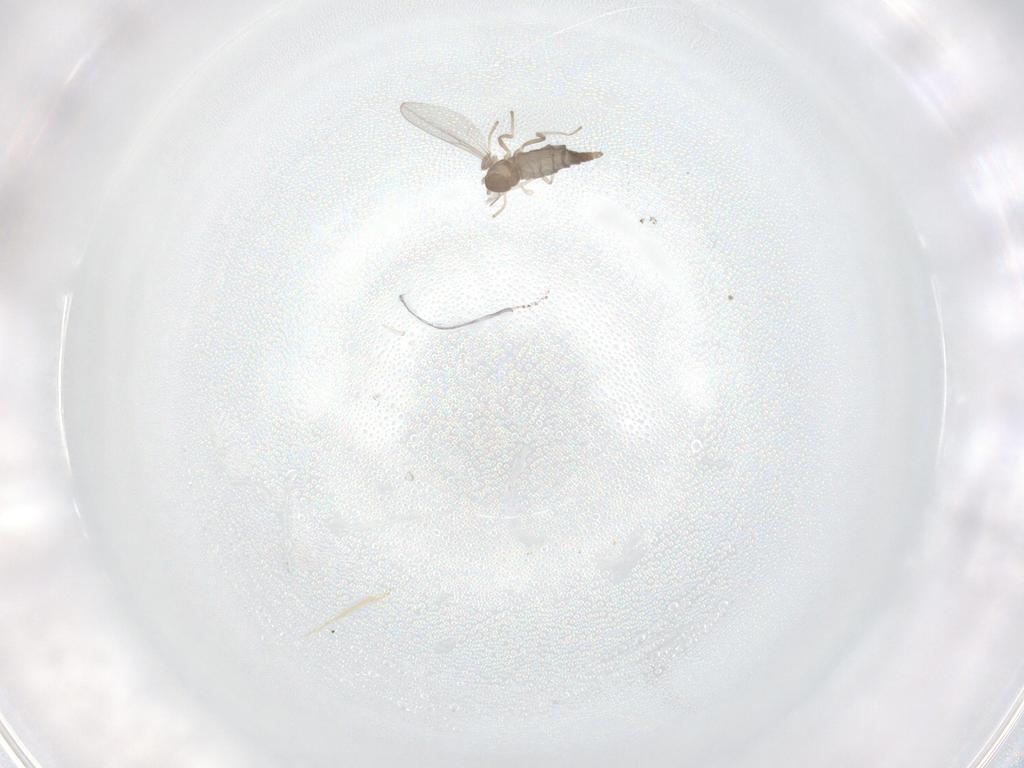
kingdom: Animalia
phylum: Arthropoda
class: Insecta
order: Diptera
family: Cecidomyiidae
